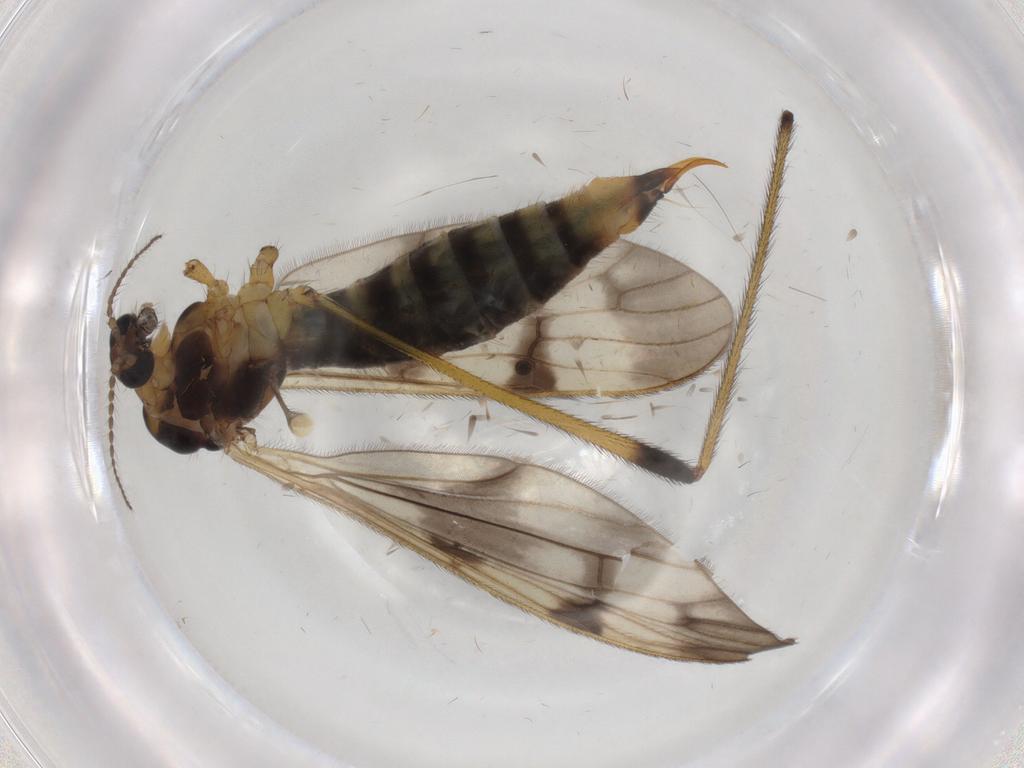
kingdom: Animalia
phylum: Arthropoda
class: Insecta
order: Diptera
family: Limoniidae
